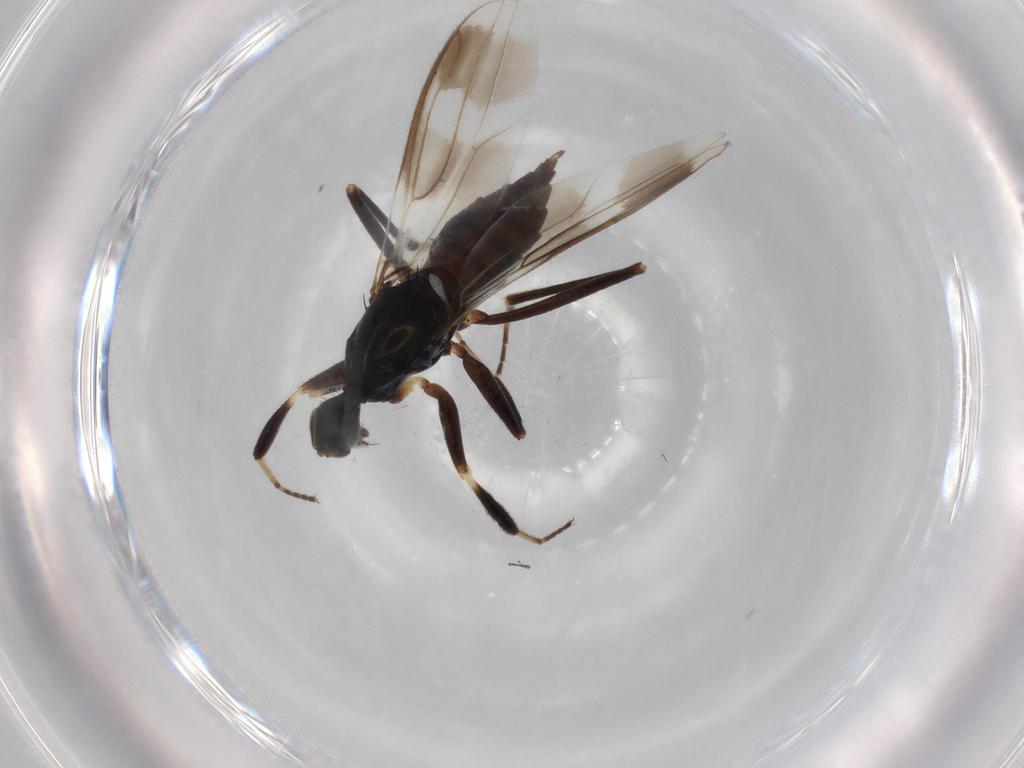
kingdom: Animalia
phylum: Arthropoda
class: Insecta
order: Diptera
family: Hybotidae
